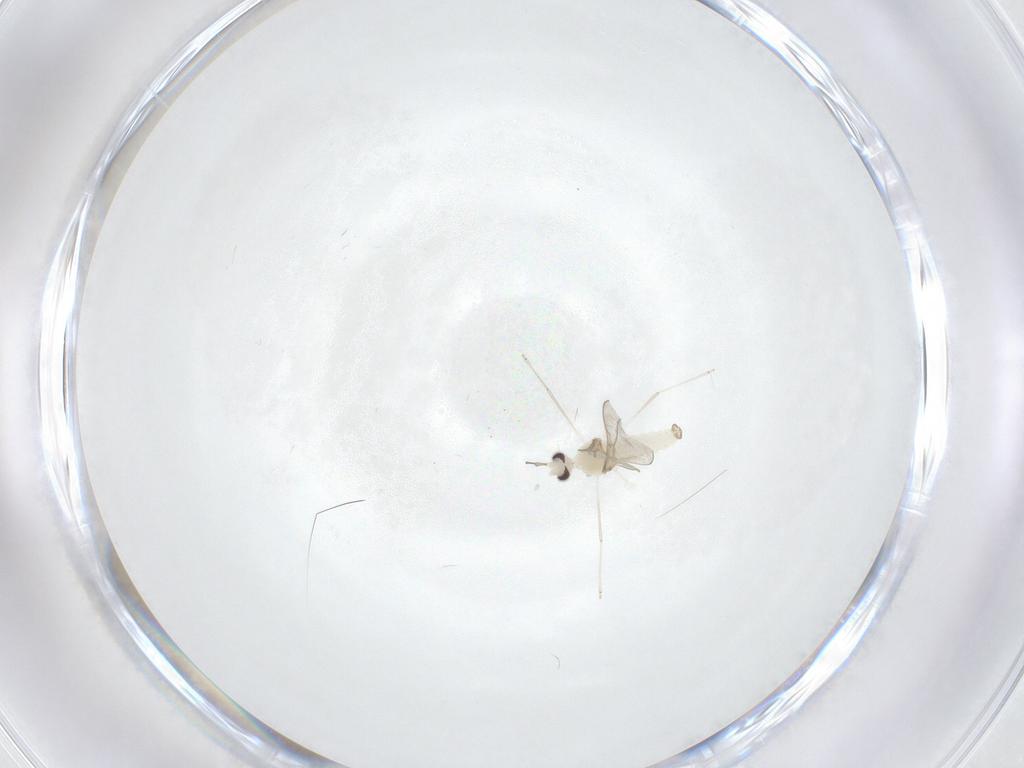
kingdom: Animalia
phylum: Arthropoda
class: Insecta
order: Diptera
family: Cecidomyiidae
